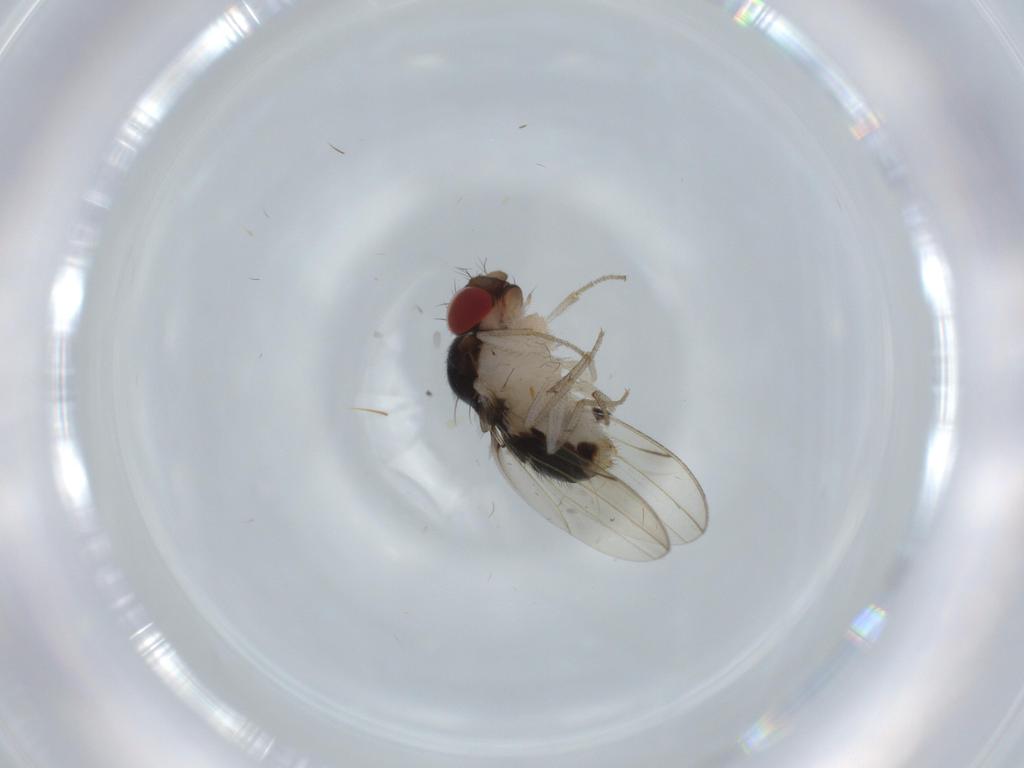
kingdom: Animalia
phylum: Arthropoda
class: Insecta
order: Diptera
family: Drosophilidae
